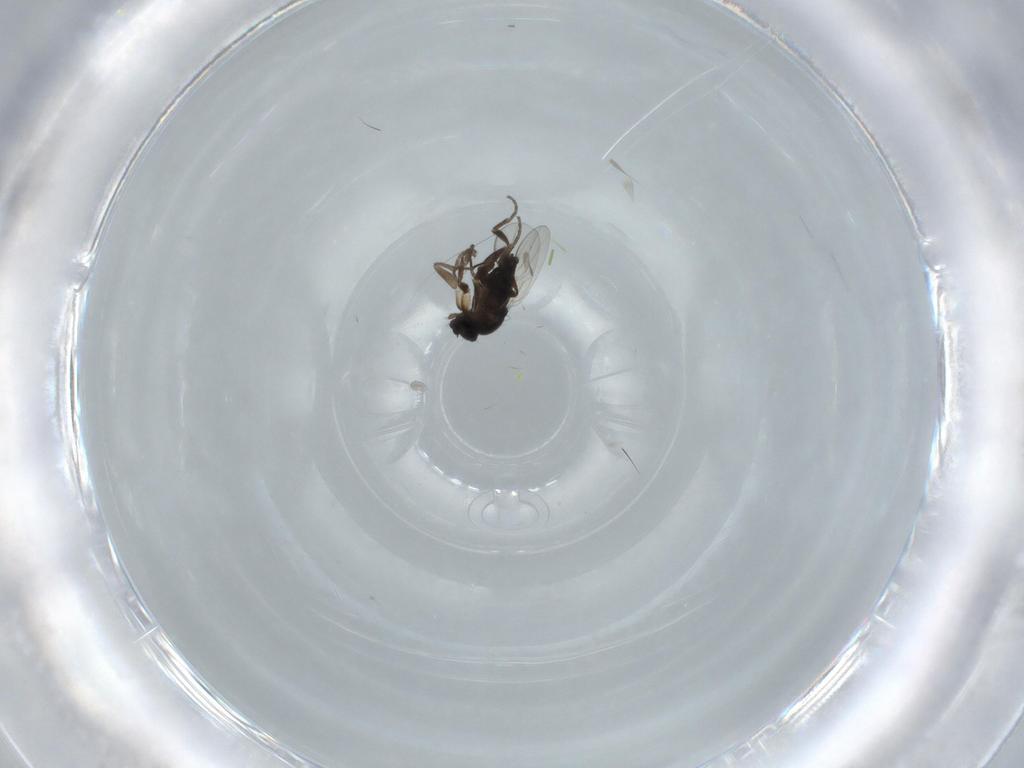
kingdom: Animalia
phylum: Arthropoda
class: Insecta
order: Diptera
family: Phoridae
